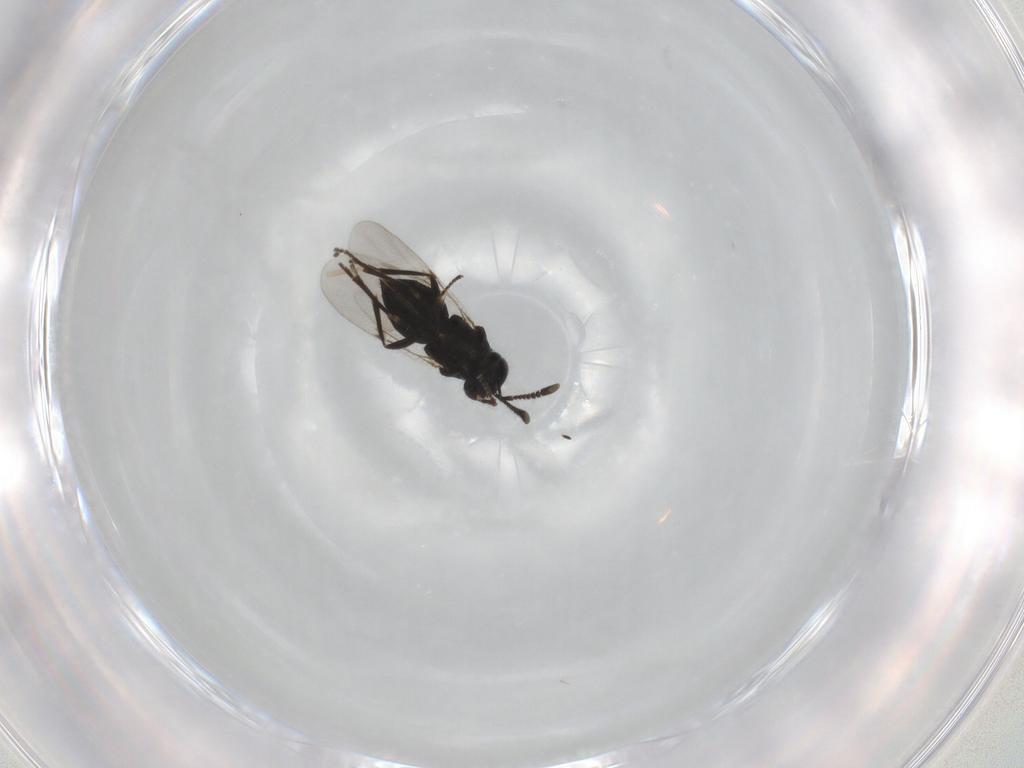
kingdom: Animalia
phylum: Arthropoda
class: Insecta
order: Hymenoptera
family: Encyrtidae
